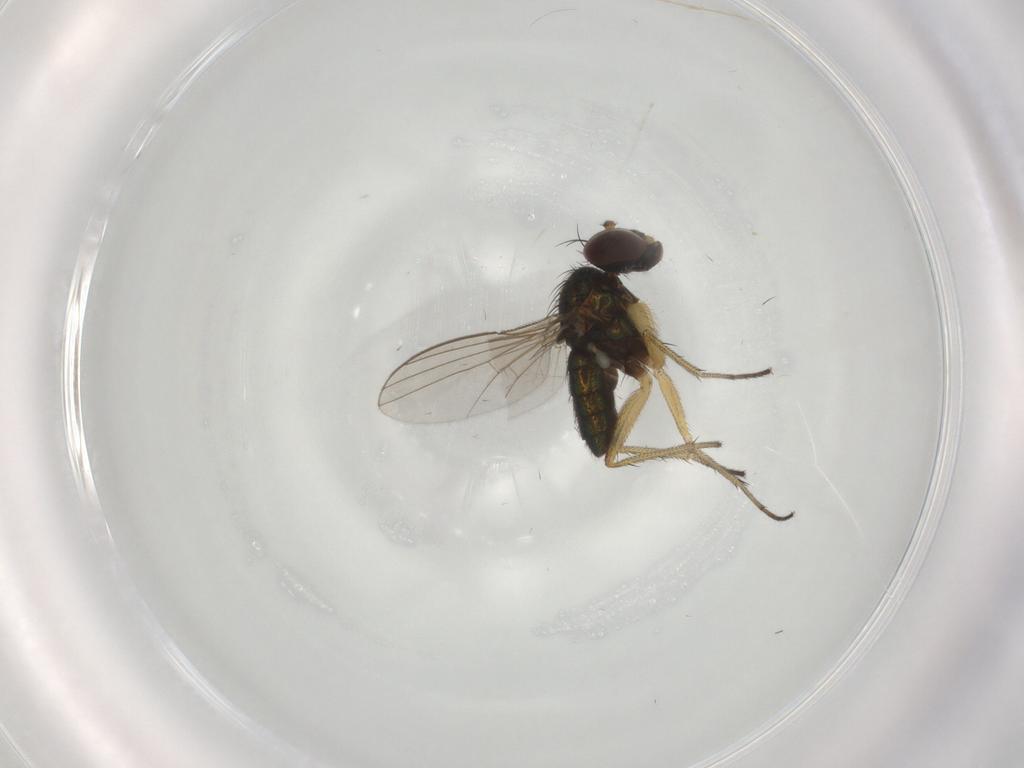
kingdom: Animalia
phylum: Arthropoda
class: Insecta
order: Diptera
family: Dolichopodidae
